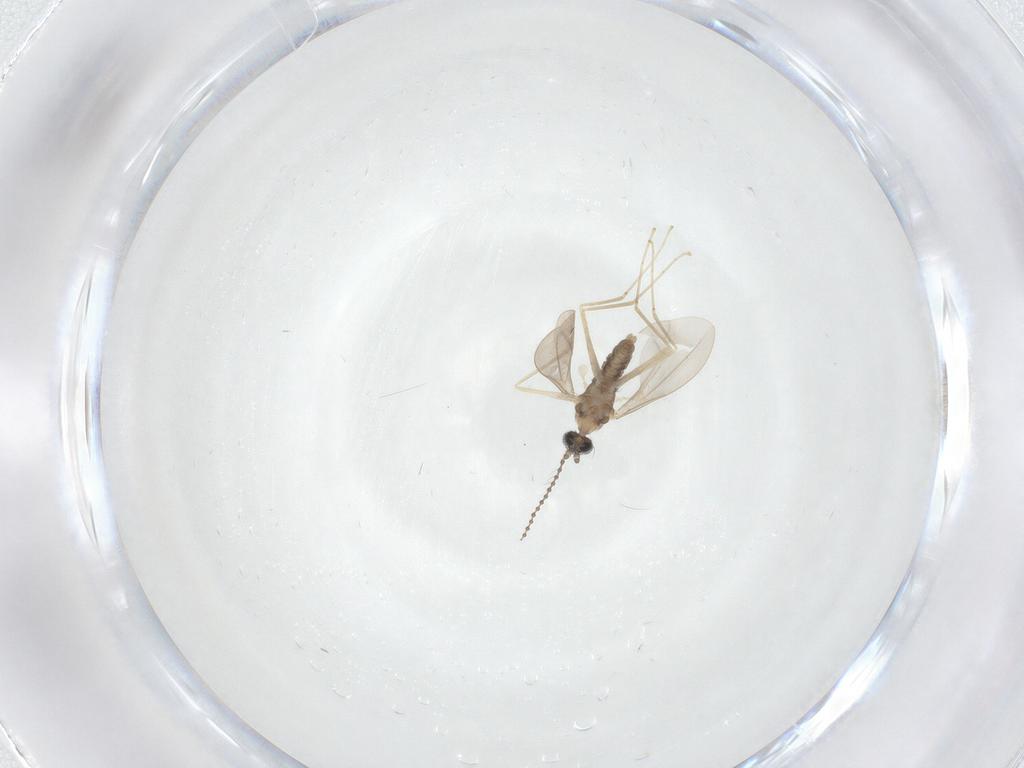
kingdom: Animalia
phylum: Arthropoda
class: Insecta
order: Diptera
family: Cecidomyiidae
